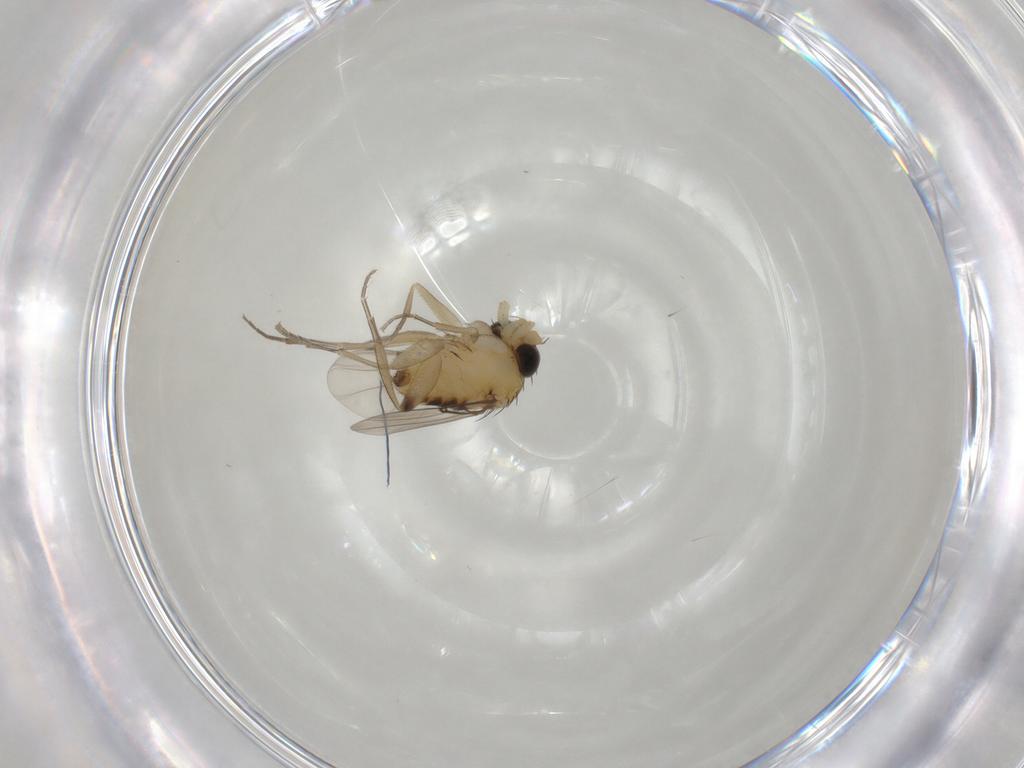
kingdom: Animalia
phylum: Arthropoda
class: Insecta
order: Diptera
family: Phoridae
